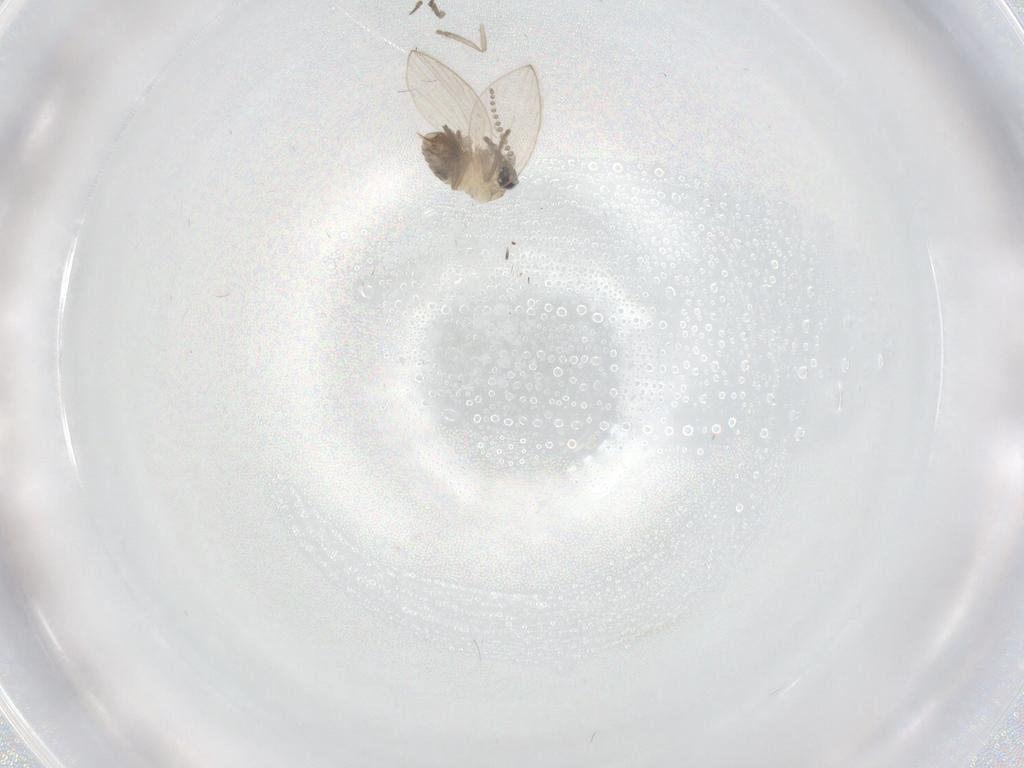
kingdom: Animalia
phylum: Arthropoda
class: Insecta
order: Diptera
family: Psychodidae
